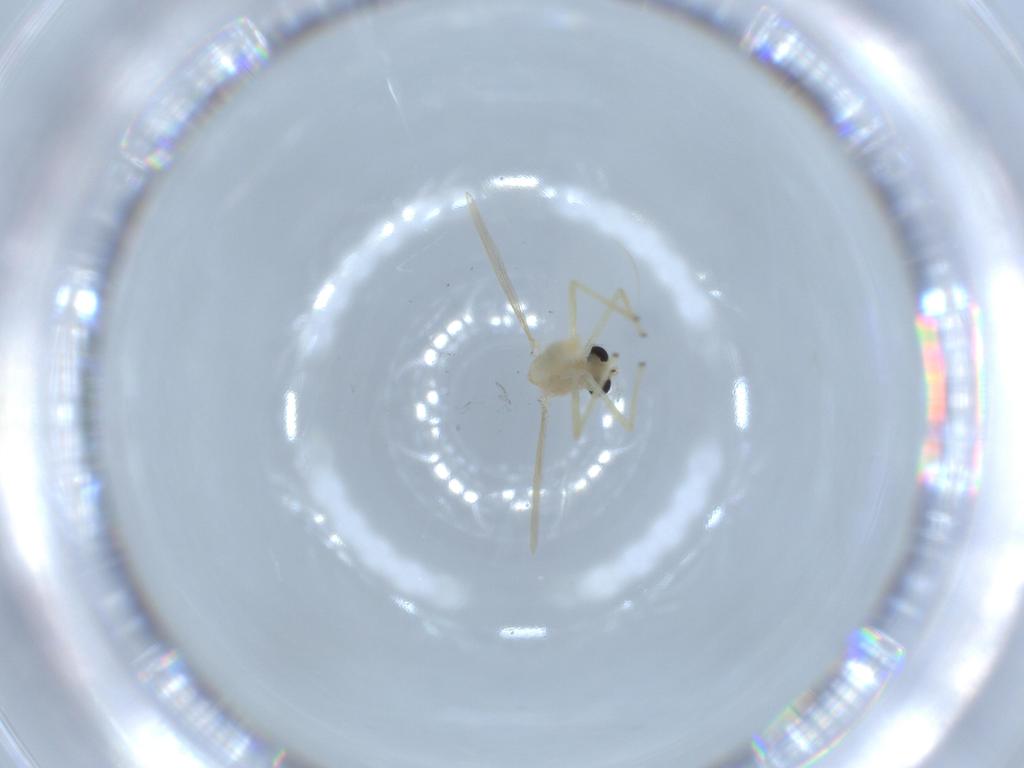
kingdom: Animalia
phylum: Arthropoda
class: Insecta
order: Diptera
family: Chironomidae
